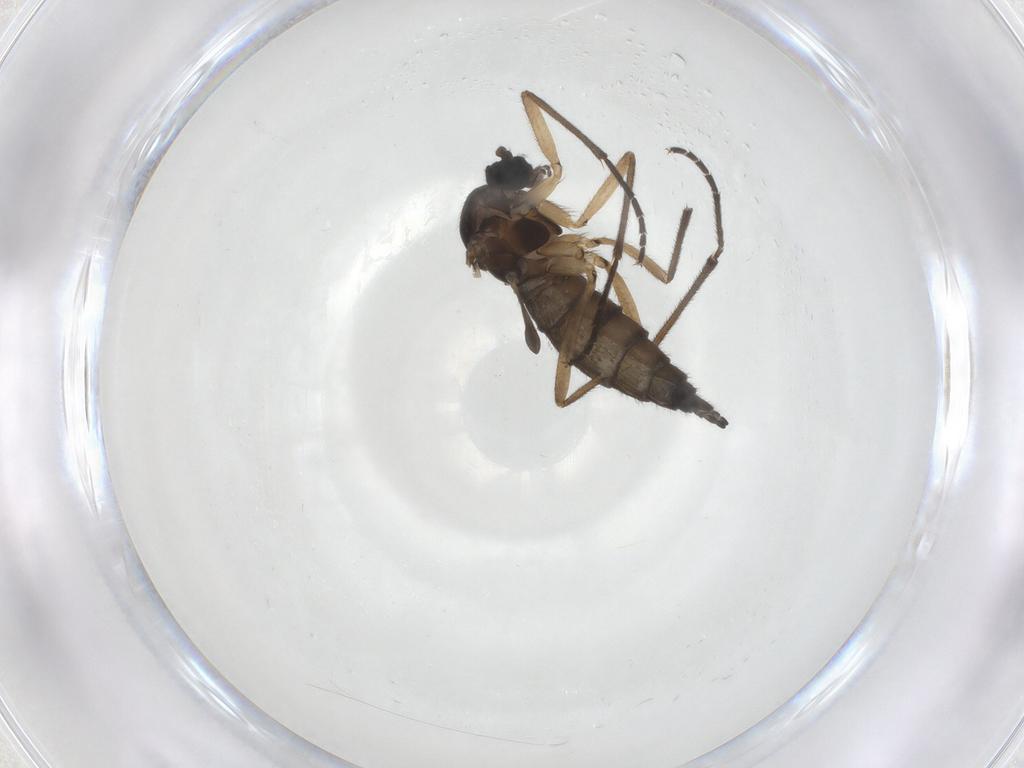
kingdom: Animalia
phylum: Arthropoda
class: Insecta
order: Diptera
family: Sciaridae
